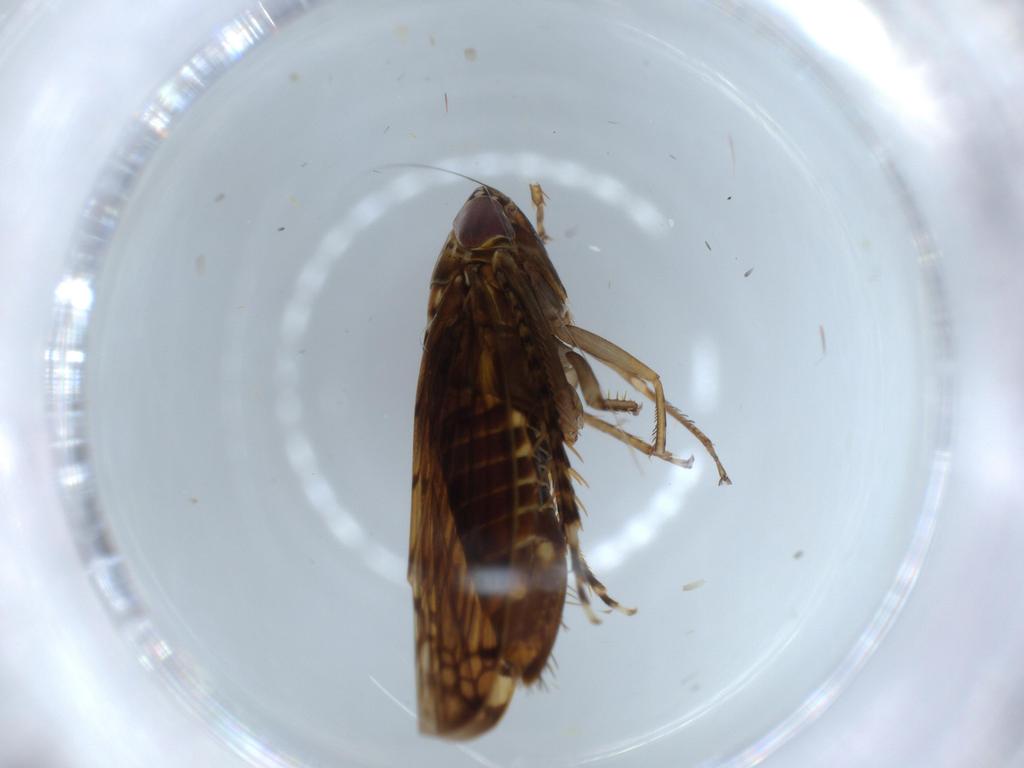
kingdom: Animalia
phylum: Arthropoda
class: Insecta
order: Hemiptera
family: Cicadellidae
